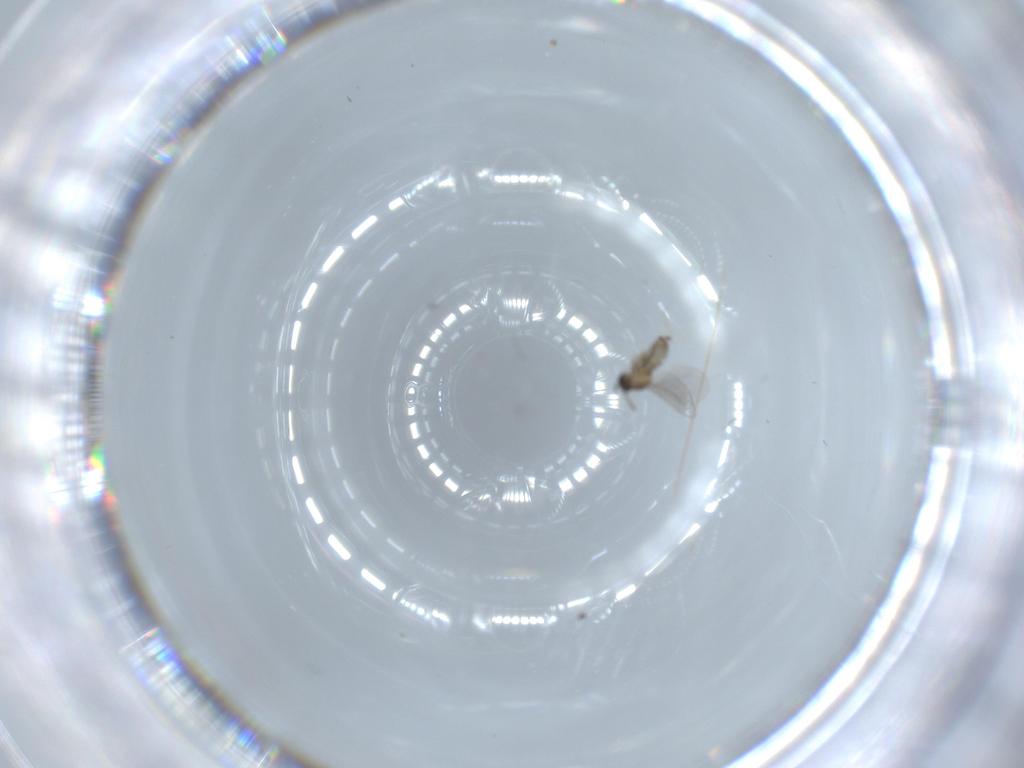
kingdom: Animalia
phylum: Arthropoda
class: Insecta
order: Diptera
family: Cecidomyiidae
